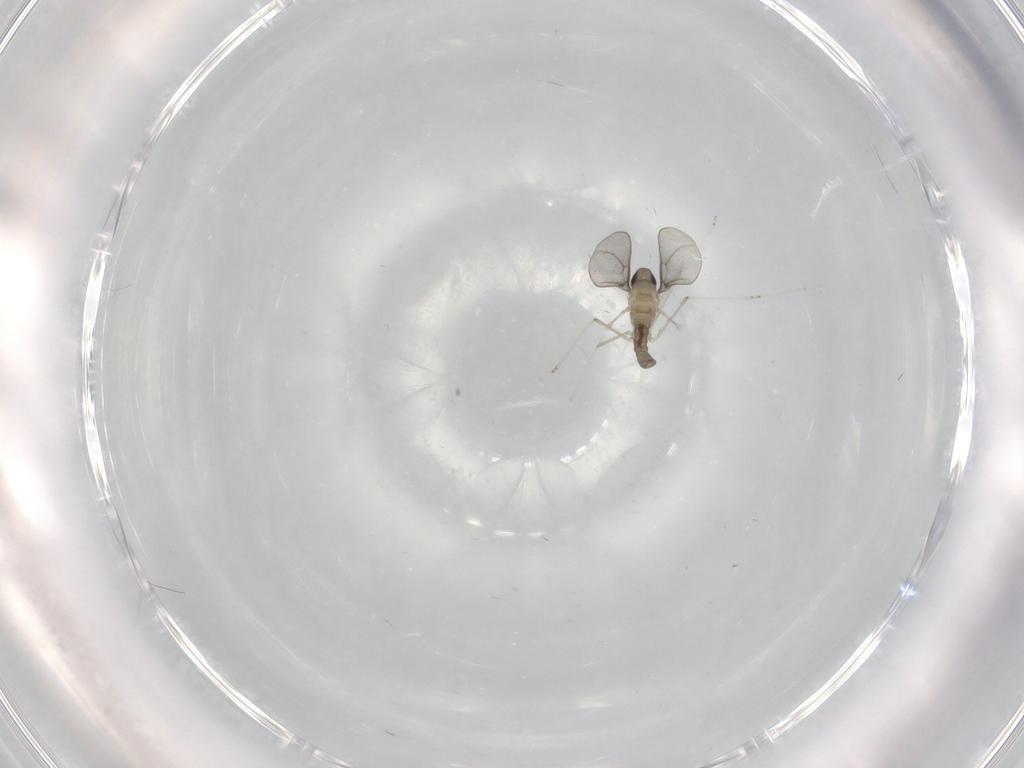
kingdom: Animalia
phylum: Arthropoda
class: Insecta
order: Diptera
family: Cecidomyiidae
